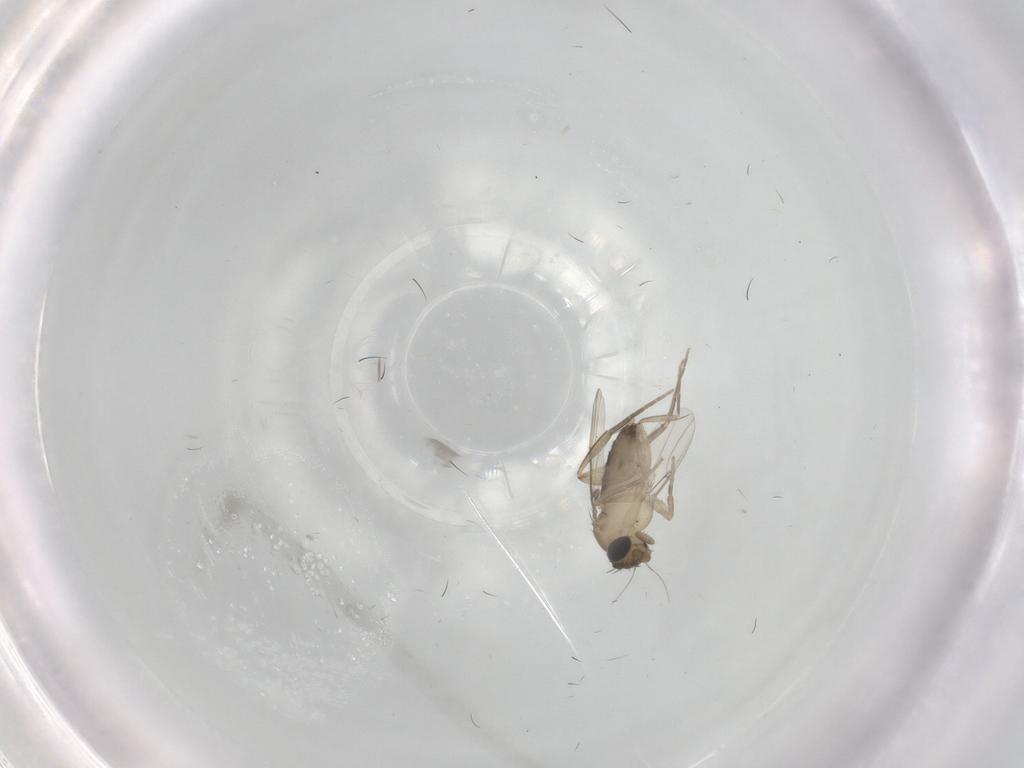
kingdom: Animalia
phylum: Arthropoda
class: Insecta
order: Diptera
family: Phoridae
